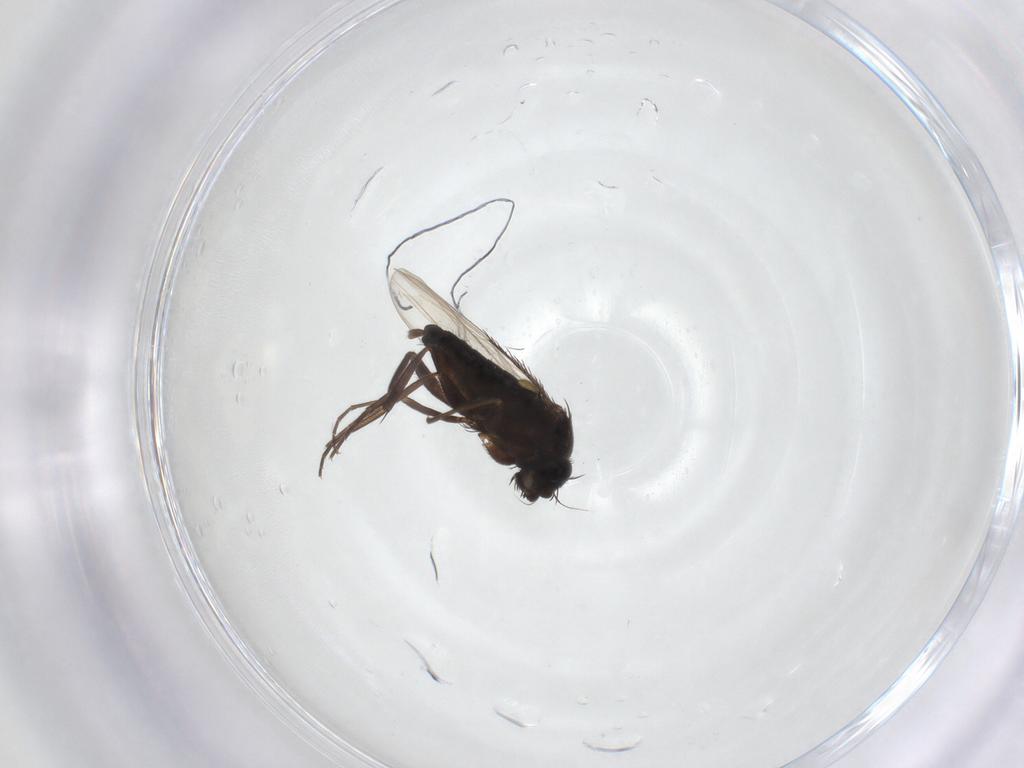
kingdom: Animalia
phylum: Arthropoda
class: Insecta
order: Diptera
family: Phoridae
